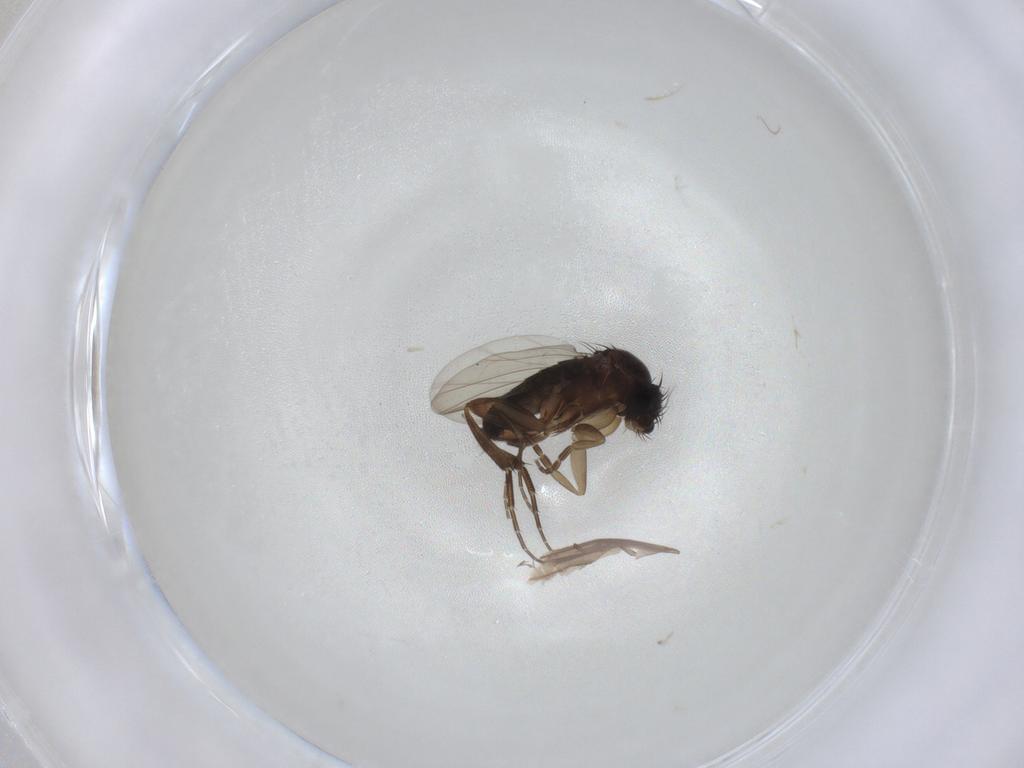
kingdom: Animalia
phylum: Arthropoda
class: Insecta
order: Diptera
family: Phoridae
